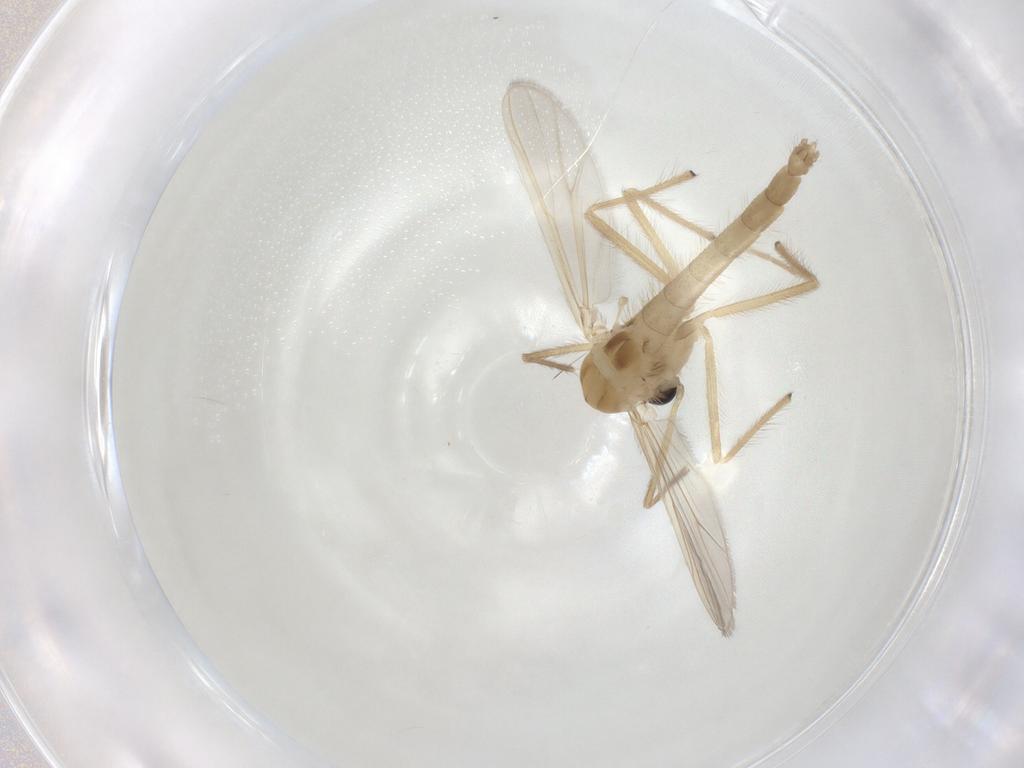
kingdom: Animalia
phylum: Arthropoda
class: Insecta
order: Diptera
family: Chironomidae
